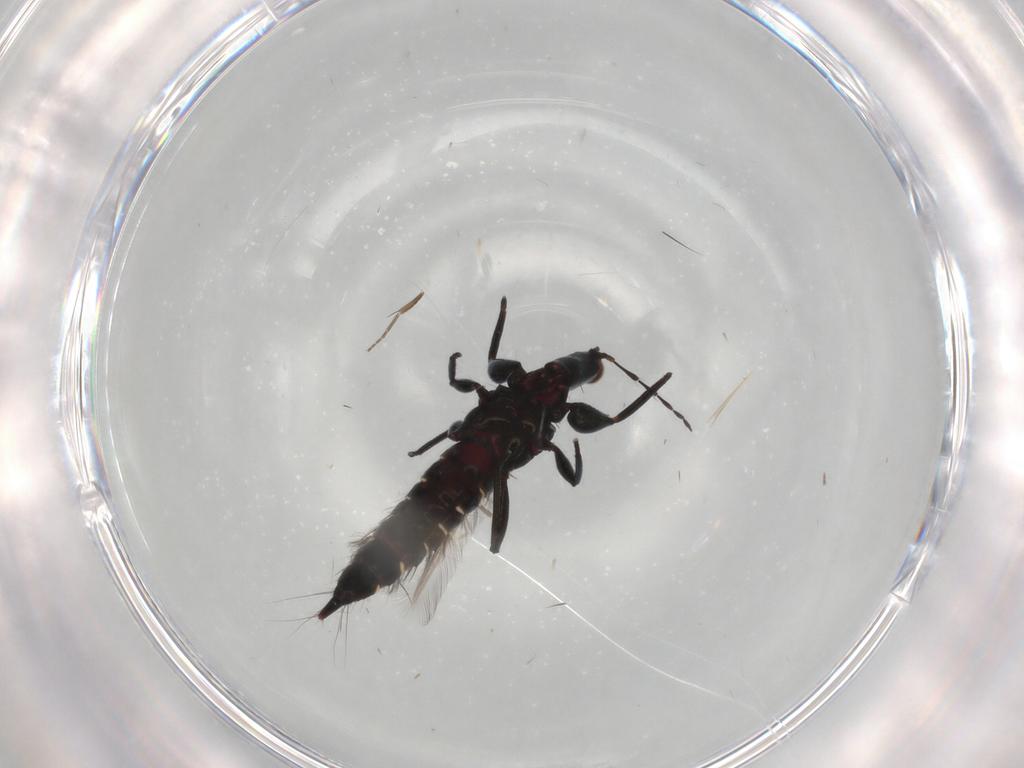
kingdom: Animalia
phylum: Arthropoda
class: Insecta
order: Thysanoptera
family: Phlaeothripidae
